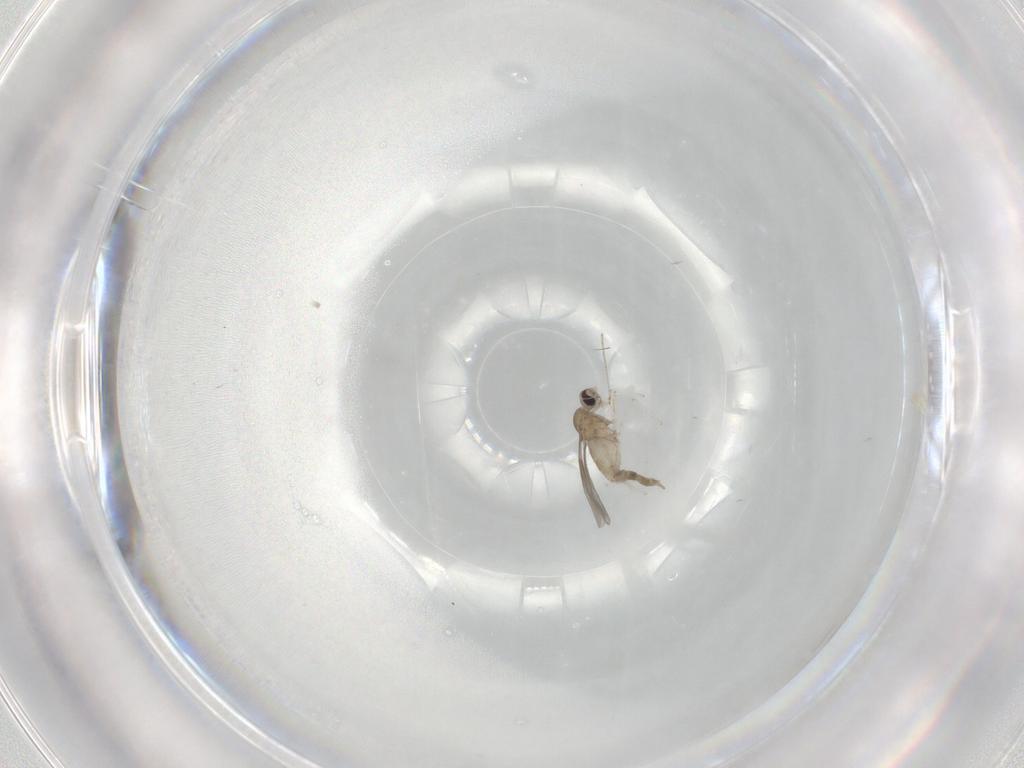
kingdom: Animalia
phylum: Arthropoda
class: Insecta
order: Diptera
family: Cecidomyiidae
